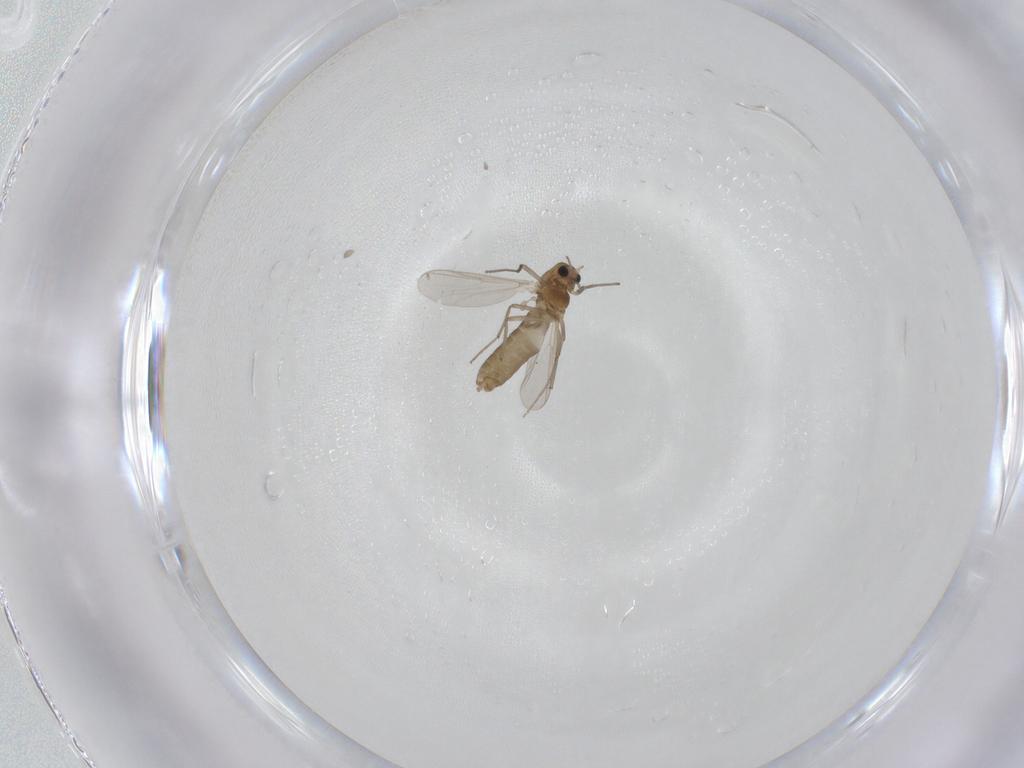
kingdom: Animalia
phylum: Arthropoda
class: Insecta
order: Diptera
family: Chironomidae
